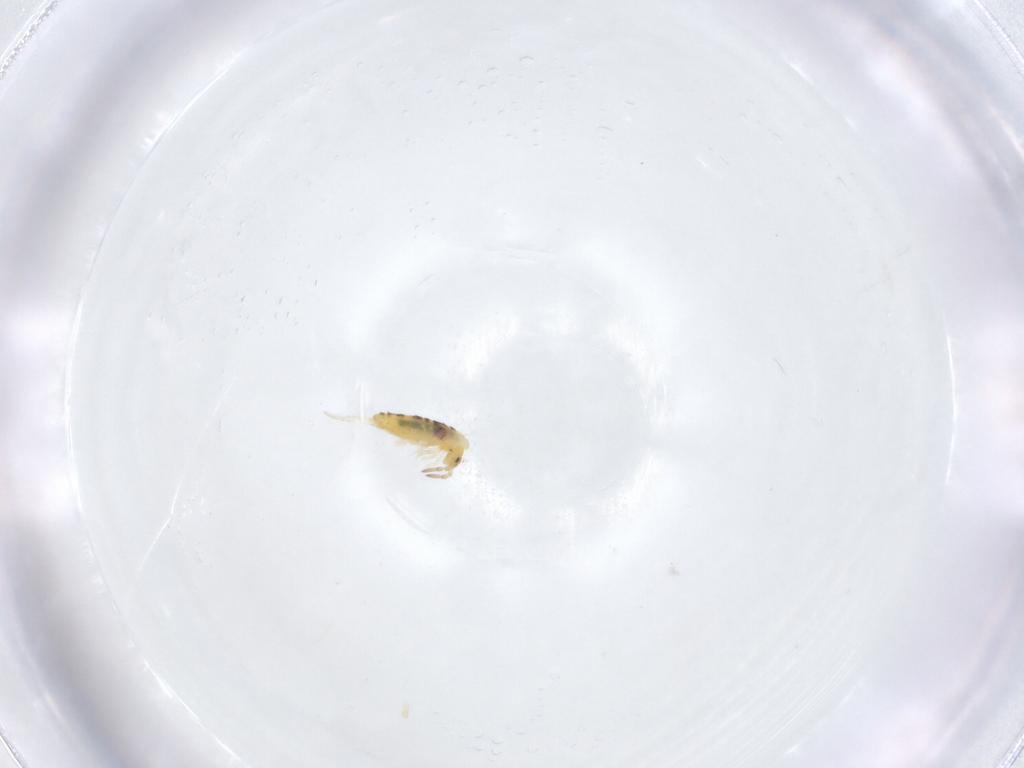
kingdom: Animalia
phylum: Arthropoda
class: Collembola
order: Entomobryomorpha
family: Entomobryidae
